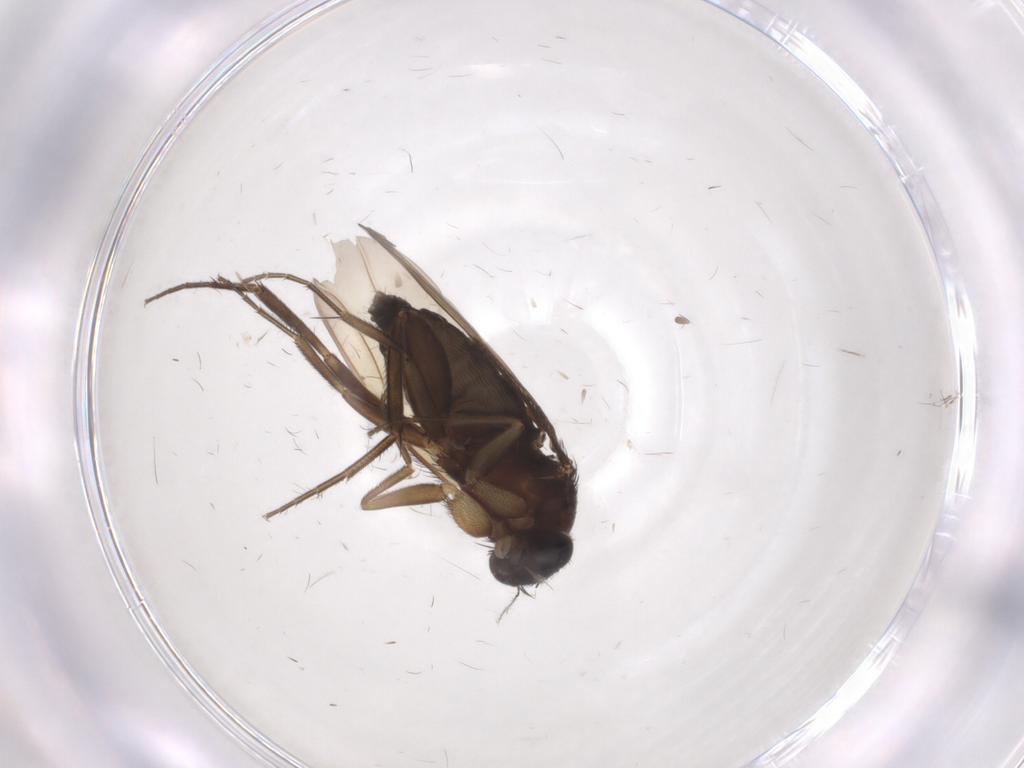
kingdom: Animalia
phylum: Arthropoda
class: Insecta
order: Diptera
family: Phoridae
